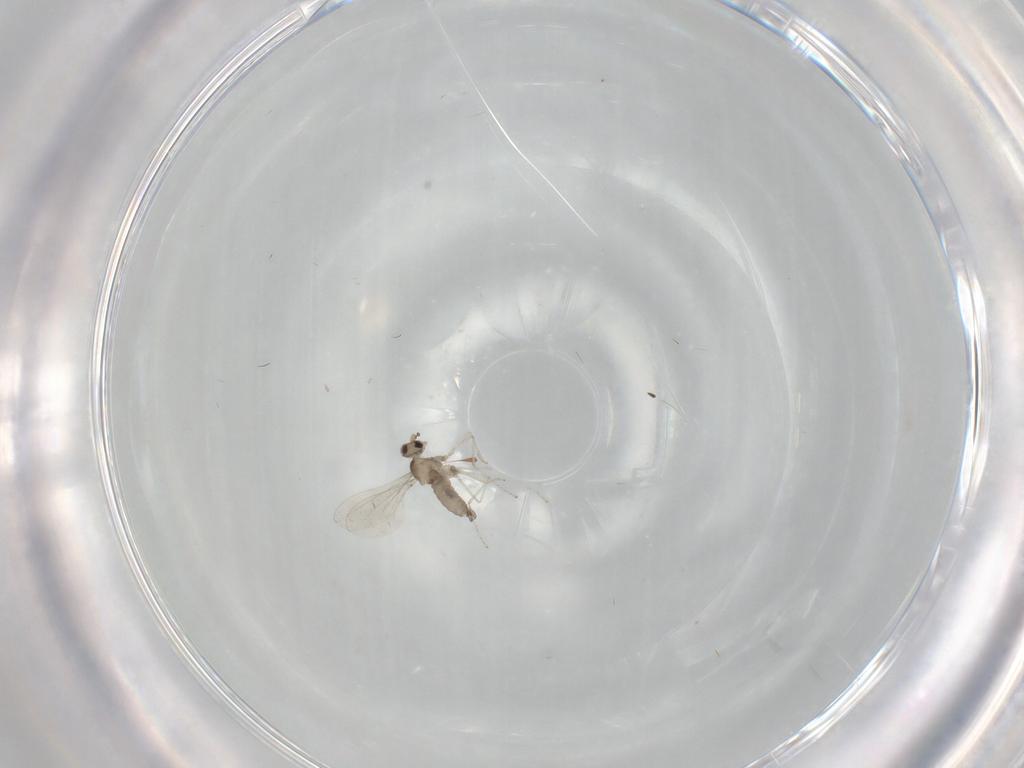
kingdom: Animalia
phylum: Arthropoda
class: Insecta
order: Diptera
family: Cecidomyiidae
